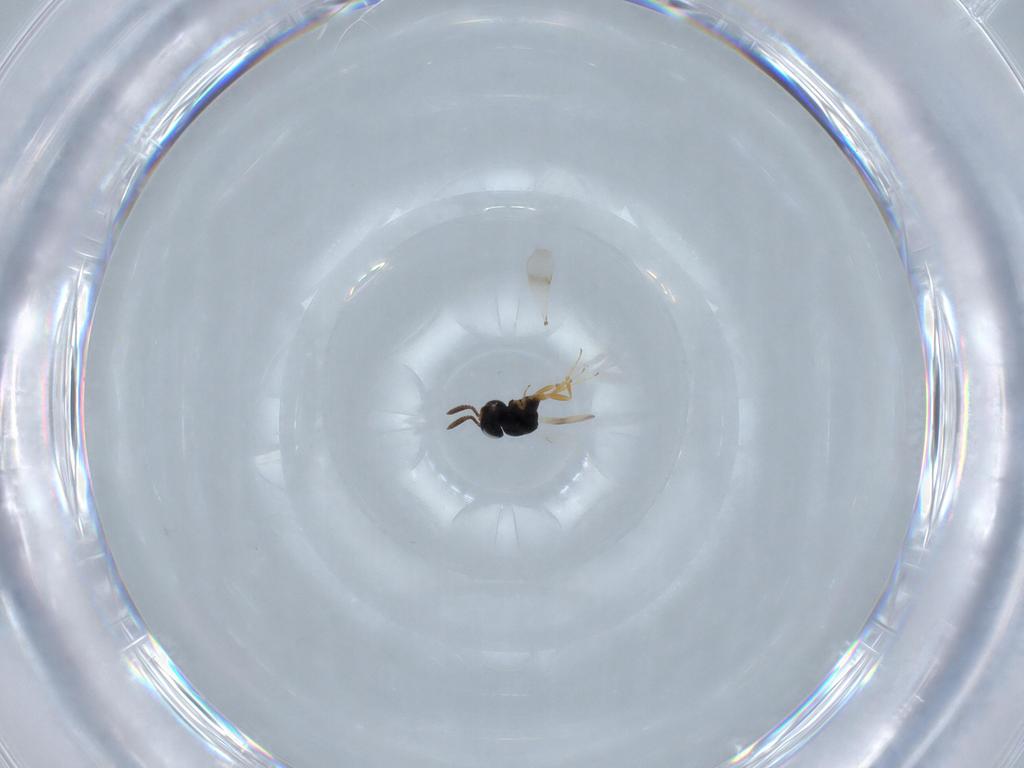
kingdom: Animalia
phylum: Arthropoda
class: Insecta
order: Hymenoptera
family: Scelionidae
